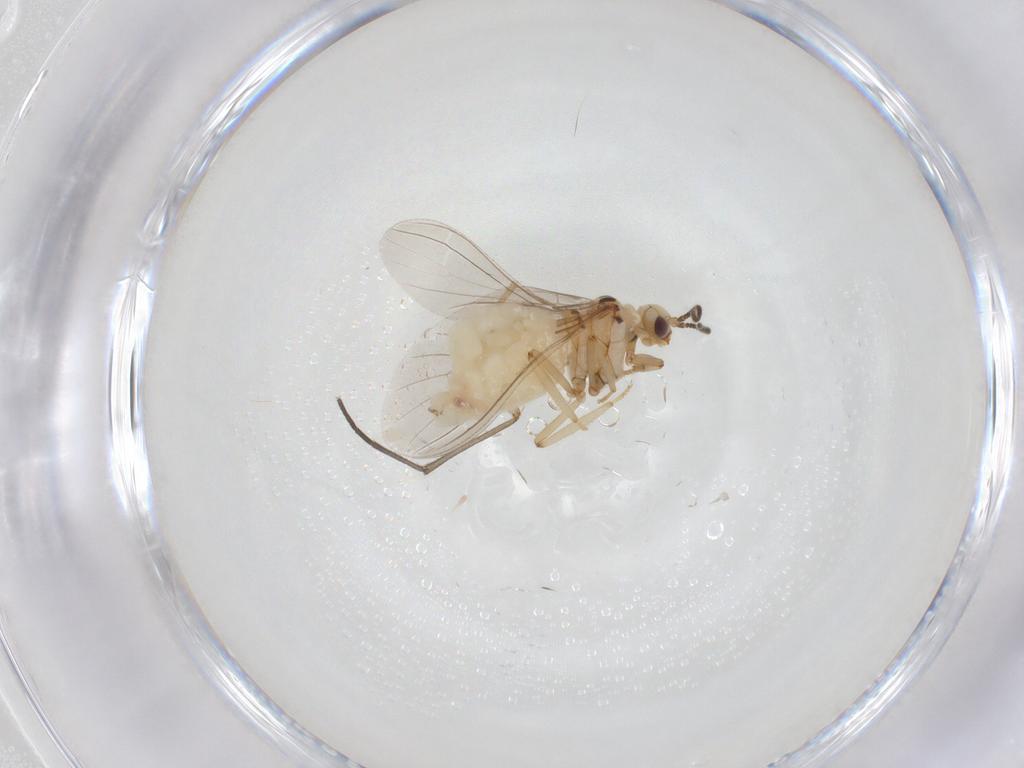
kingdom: Animalia
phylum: Arthropoda
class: Insecta
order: Neuroptera
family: Coniopterygidae
